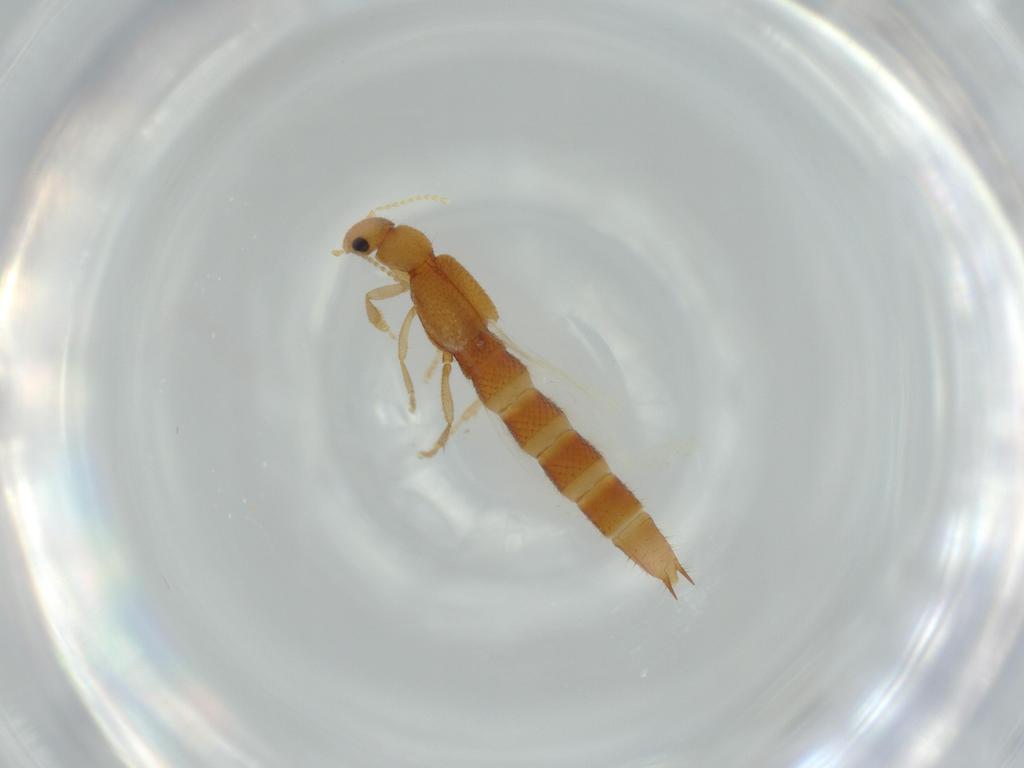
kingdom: Animalia
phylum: Arthropoda
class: Insecta
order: Coleoptera
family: Staphylinidae
